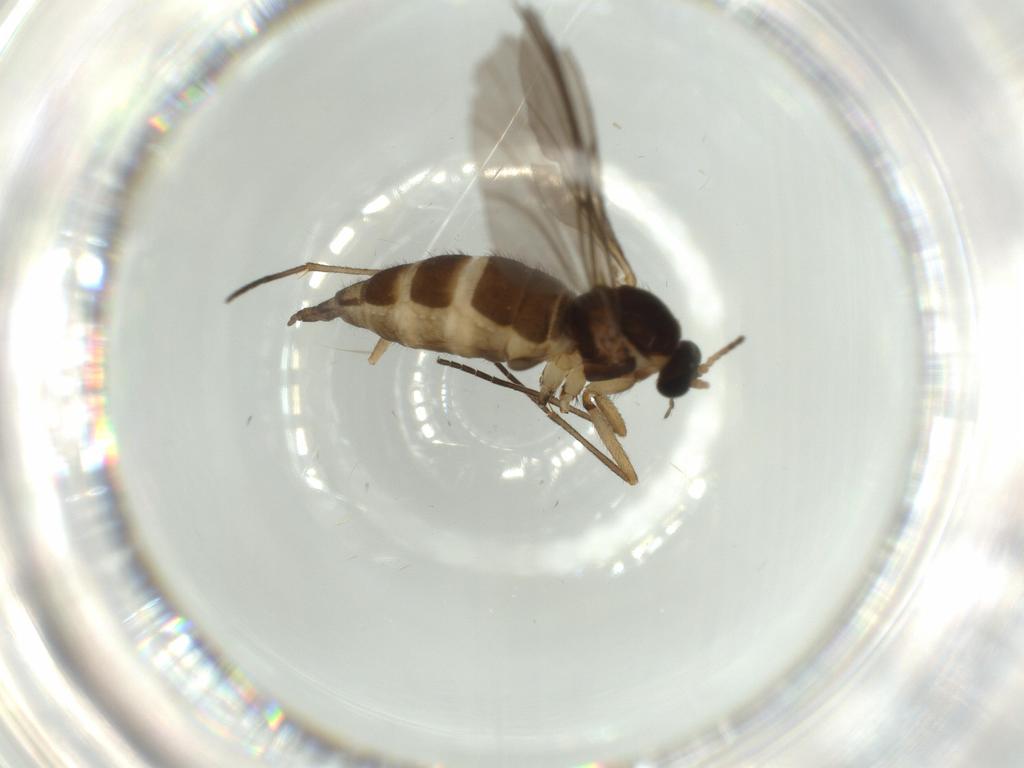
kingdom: Animalia
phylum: Arthropoda
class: Insecta
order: Diptera
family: Sciaridae
